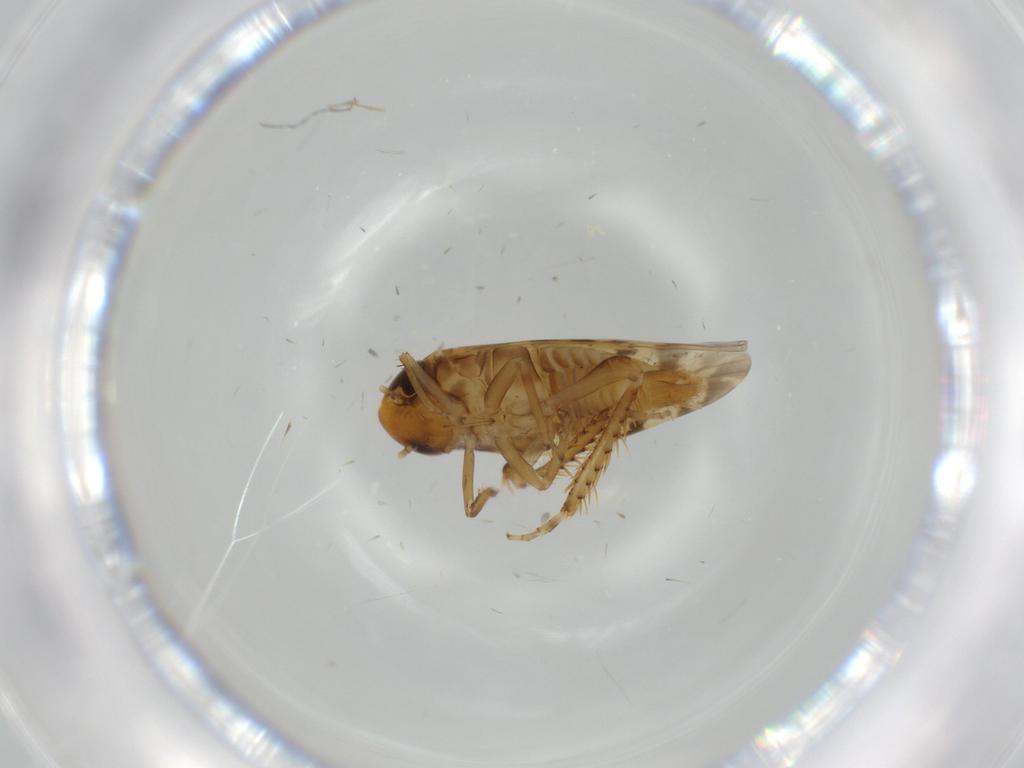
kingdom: Animalia
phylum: Arthropoda
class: Insecta
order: Hemiptera
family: Cicadellidae
